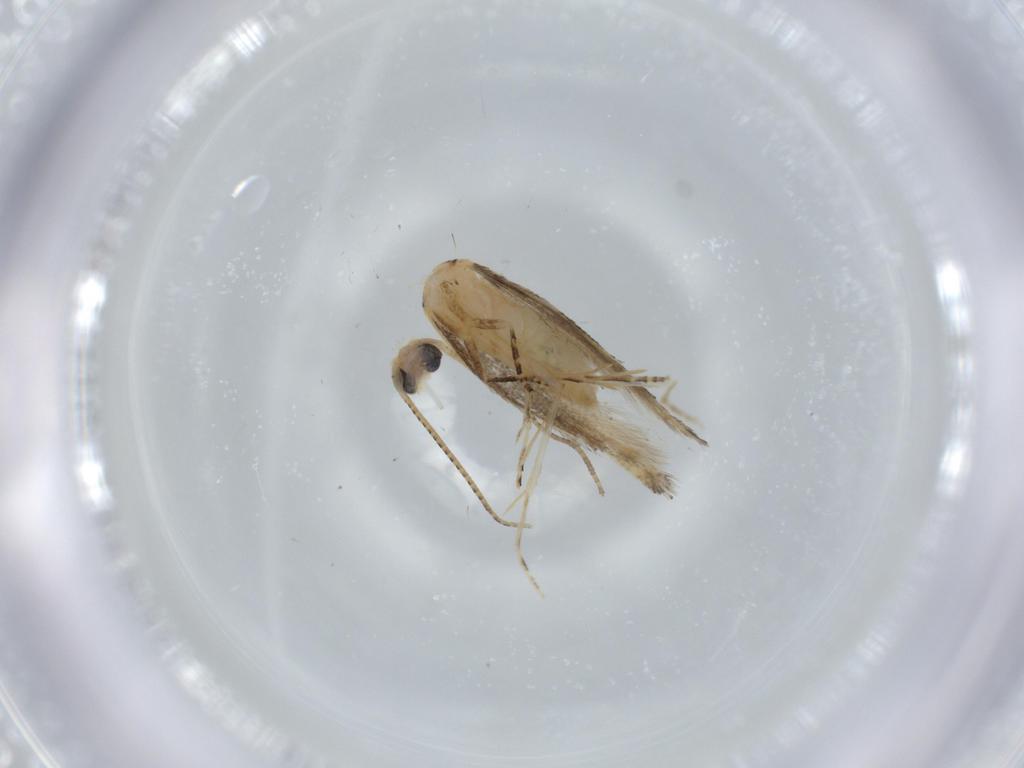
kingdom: Animalia
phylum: Arthropoda
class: Insecta
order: Lepidoptera
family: Bucculatricidae
